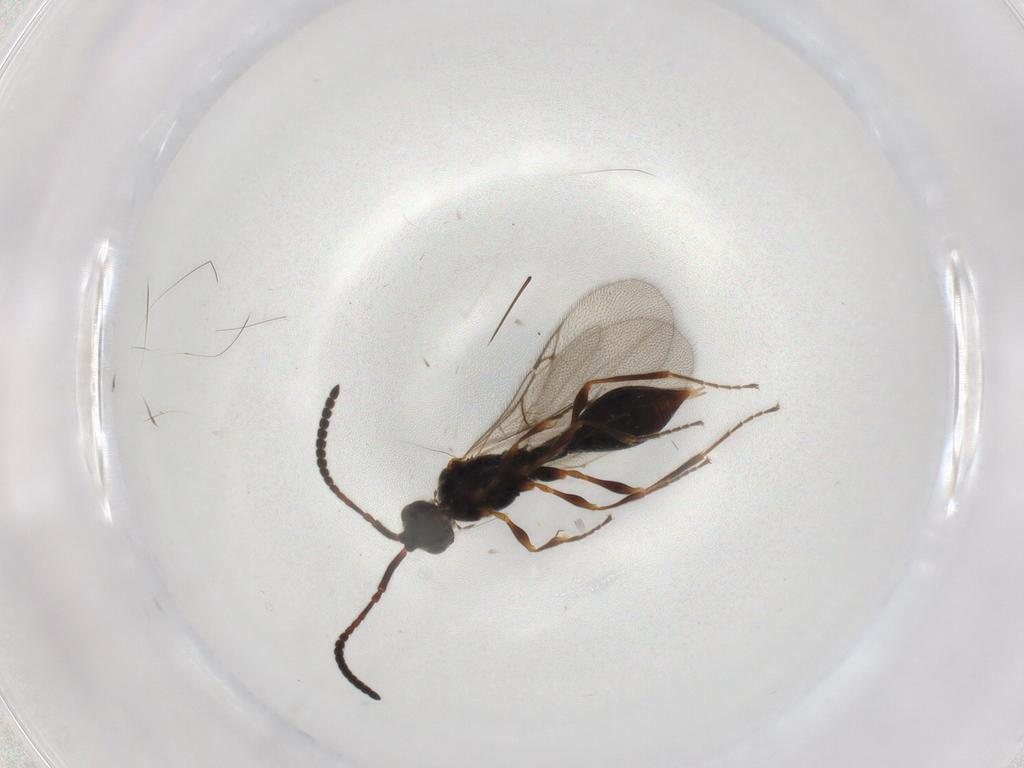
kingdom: Animalia
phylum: Arthropoda
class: Insecta
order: Hymenoptera
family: Diapriidae
